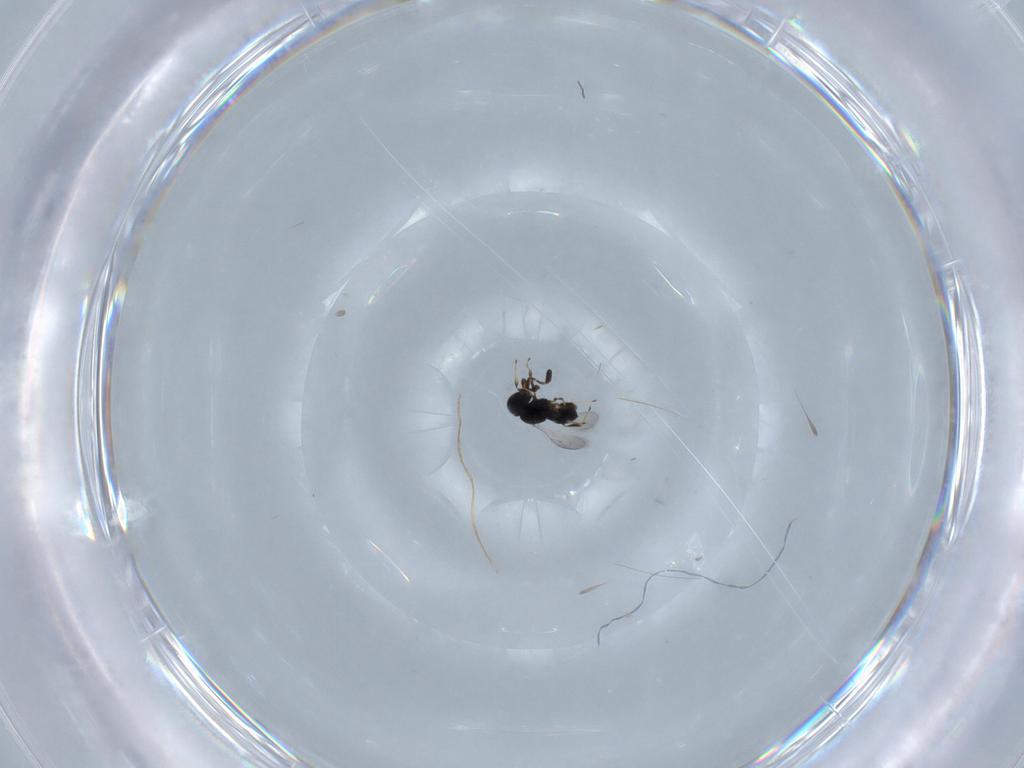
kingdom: Animalia
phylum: Arthropoda
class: Insecta
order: Hymenoptera
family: Scelionidae
